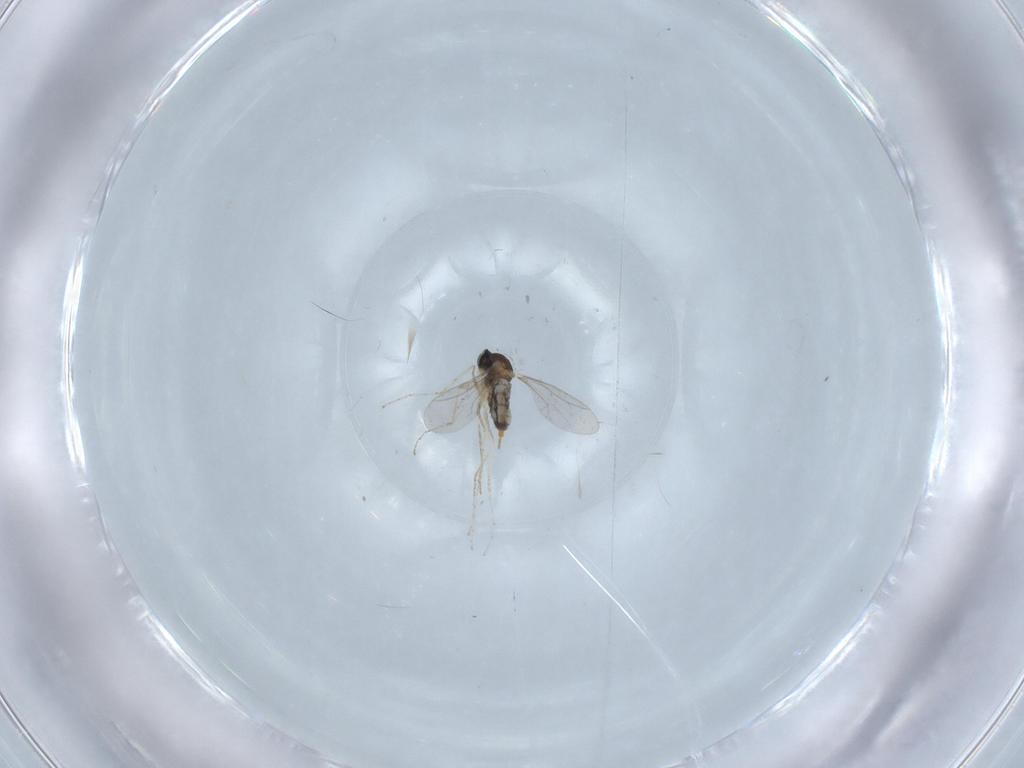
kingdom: Animalia
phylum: Arthropoda
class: Insecta
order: Diptera
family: Cecidomyiidae
